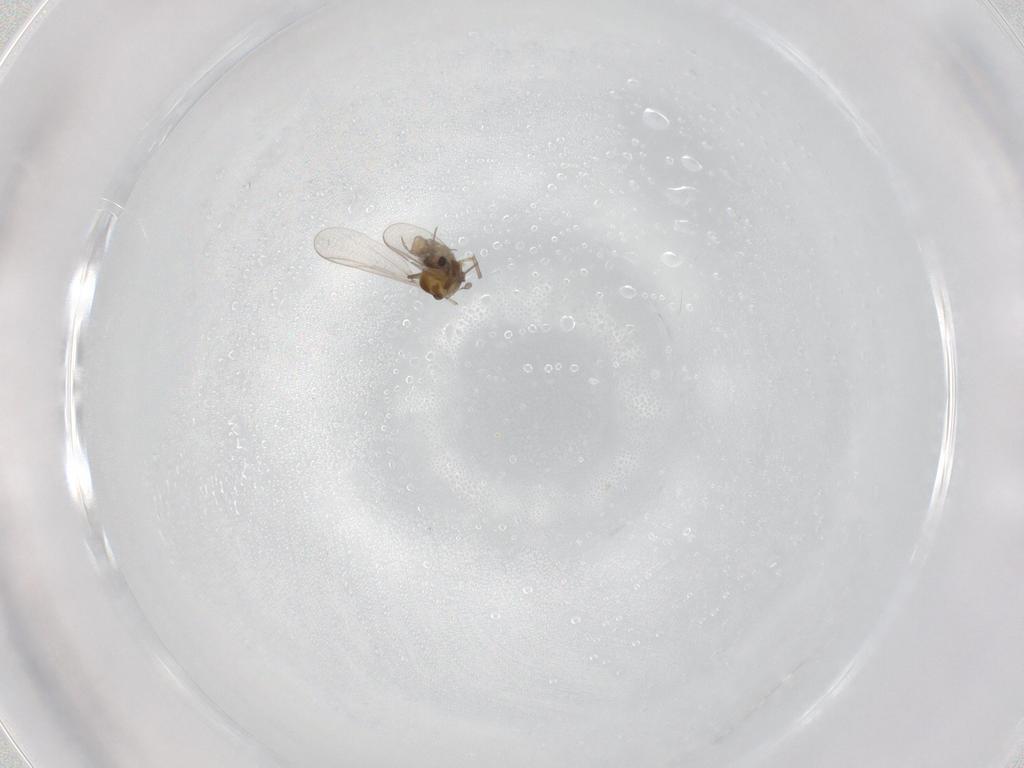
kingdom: Animalia
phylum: Arthropoda
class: Insecta
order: Diptera
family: Chironomidae
